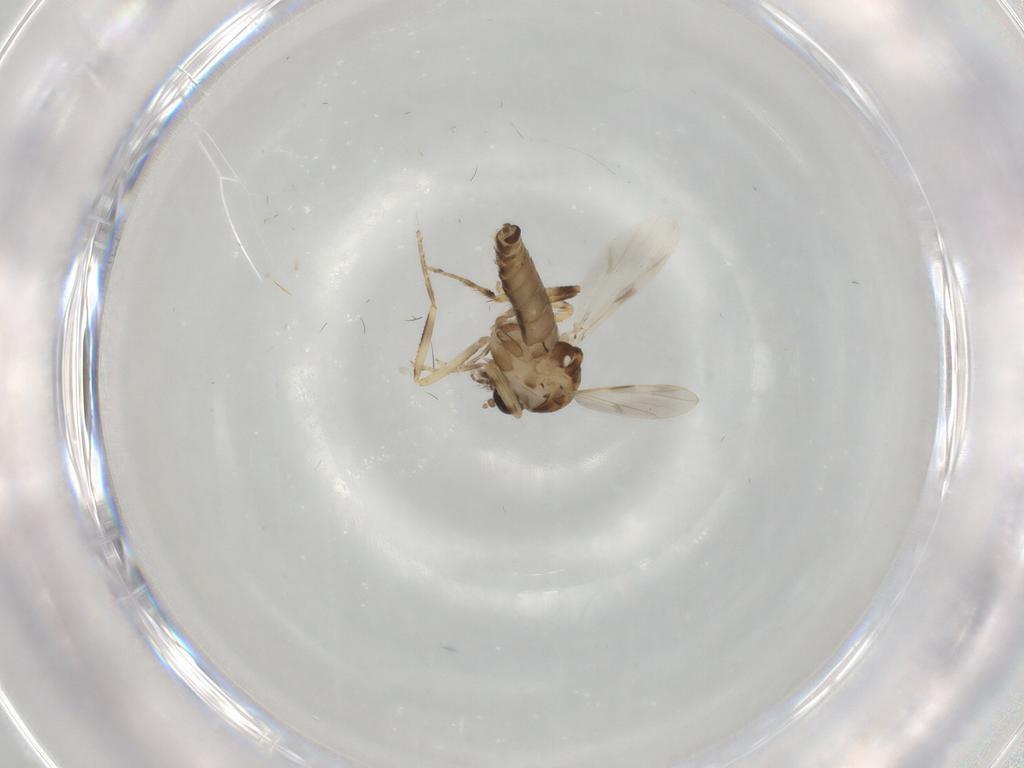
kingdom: Animalia
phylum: Arthropoda
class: Insecta
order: Diptera
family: Ceratopogonidae
